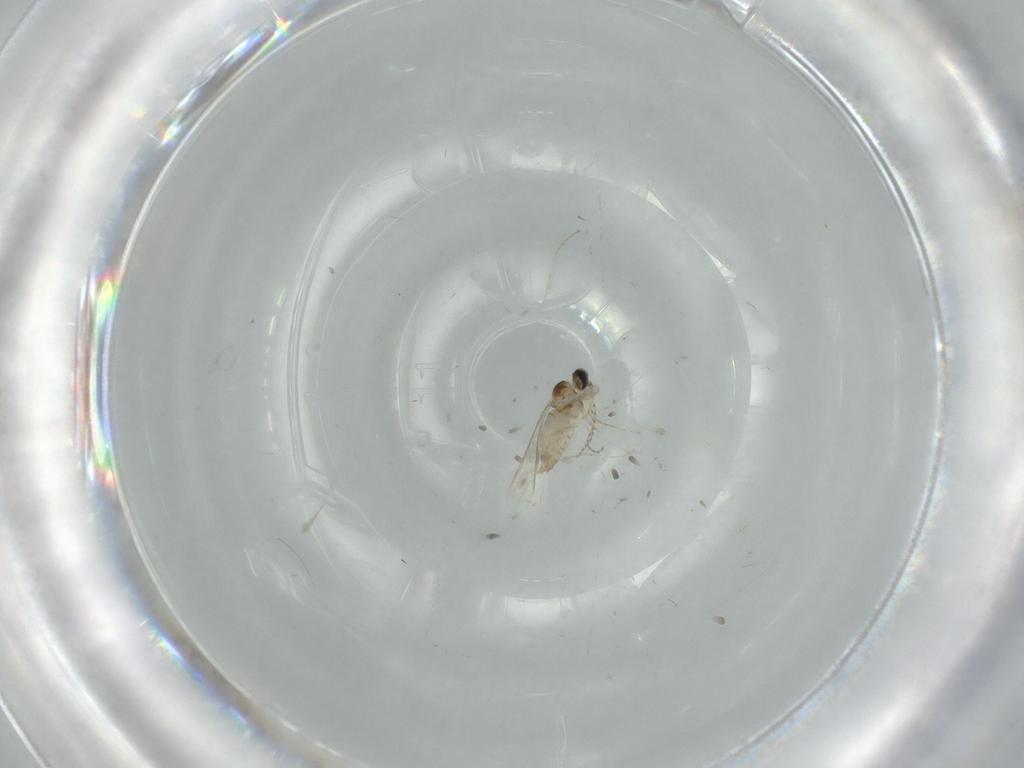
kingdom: Animalia
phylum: Arthropoda
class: Insecta
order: Diptera
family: Cecidomyiidae
